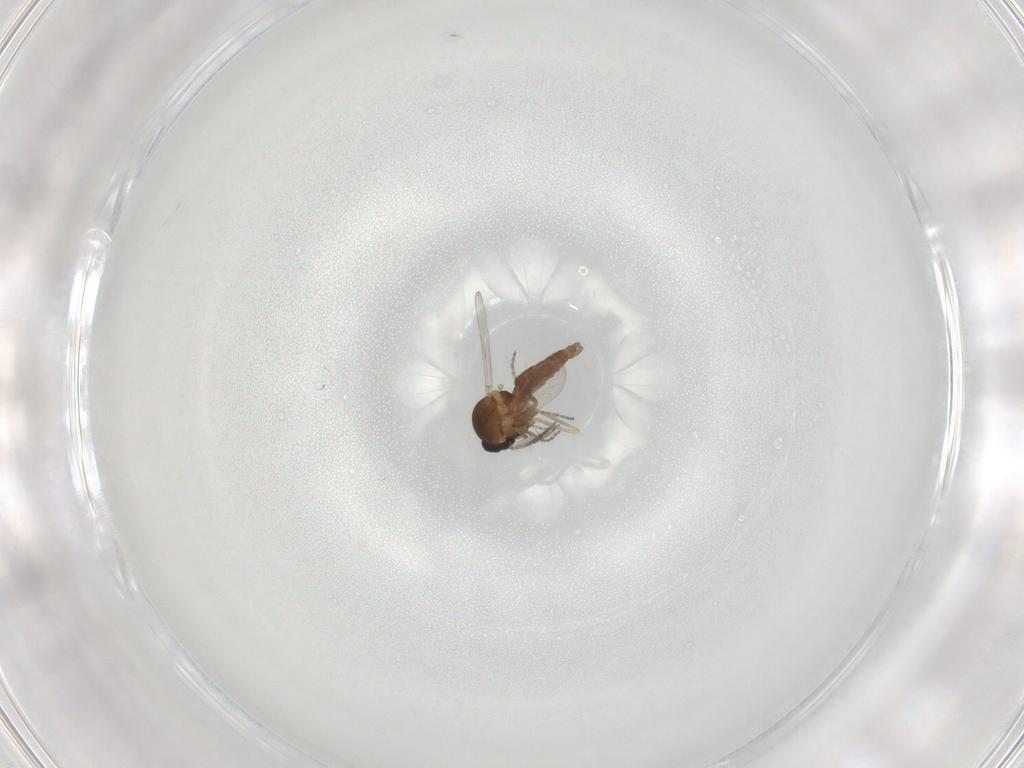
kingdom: Animalia
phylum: Arthropoda
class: Insecta
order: Diptera
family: Ceratopogonidae
